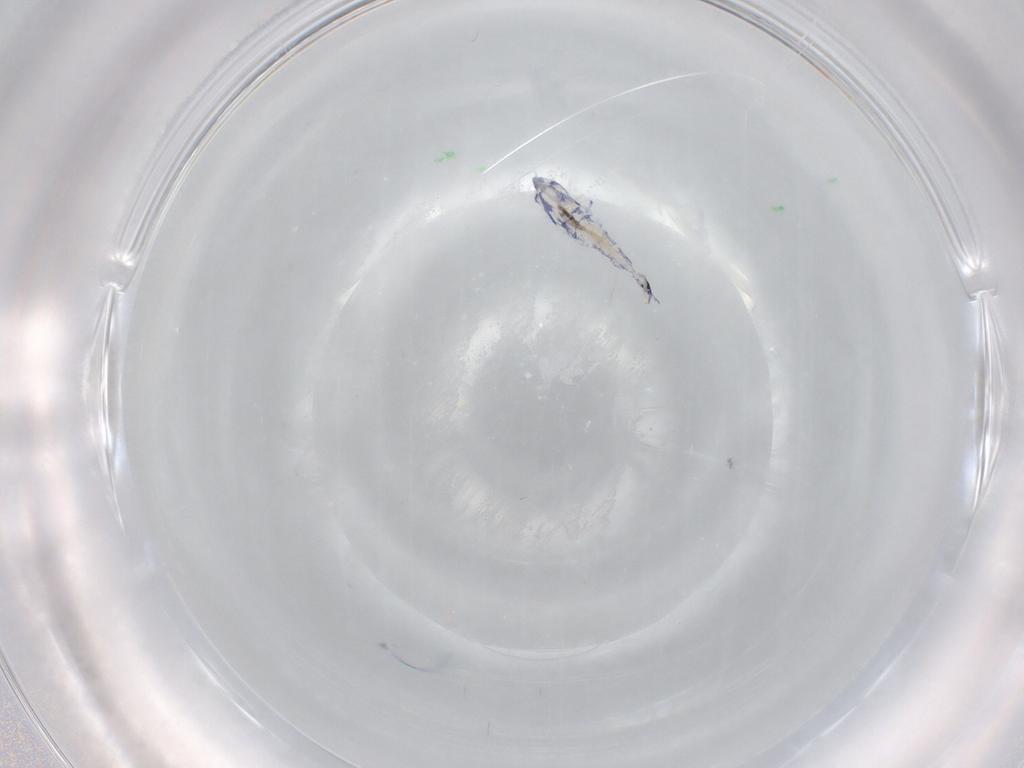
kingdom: Animalia
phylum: Arthropoda
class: Collembola
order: Entomobryomorpha
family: Entomobryidae
